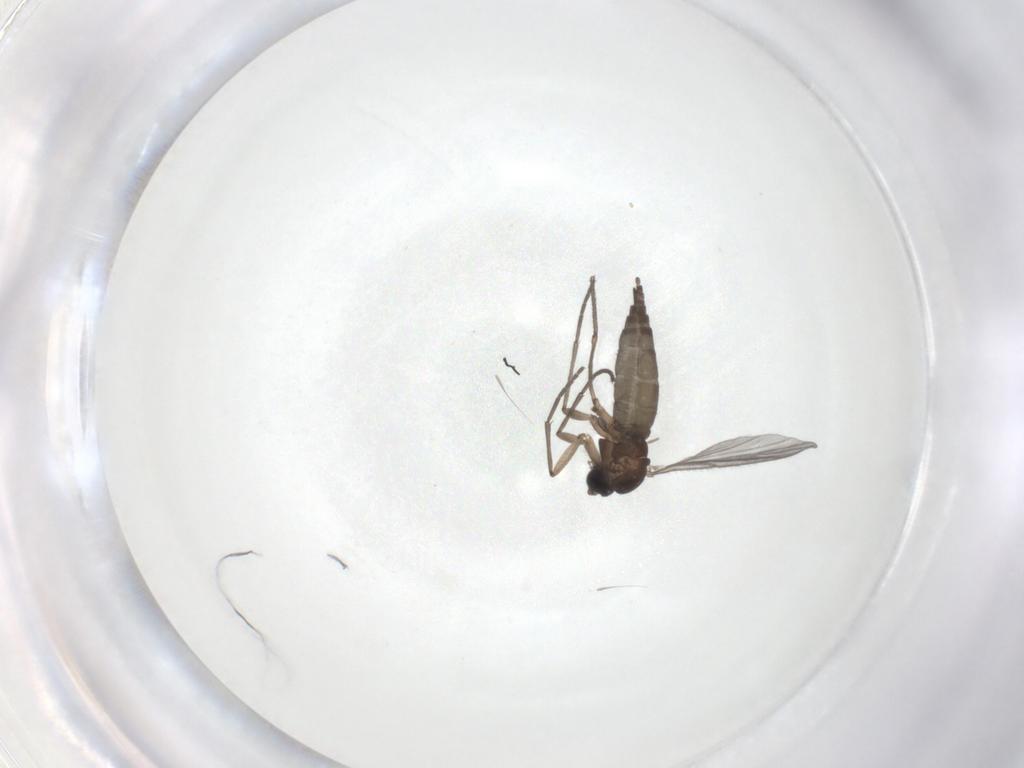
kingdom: Animalia
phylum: Arthropoda
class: Insecta
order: Diptera
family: Sciaridae
